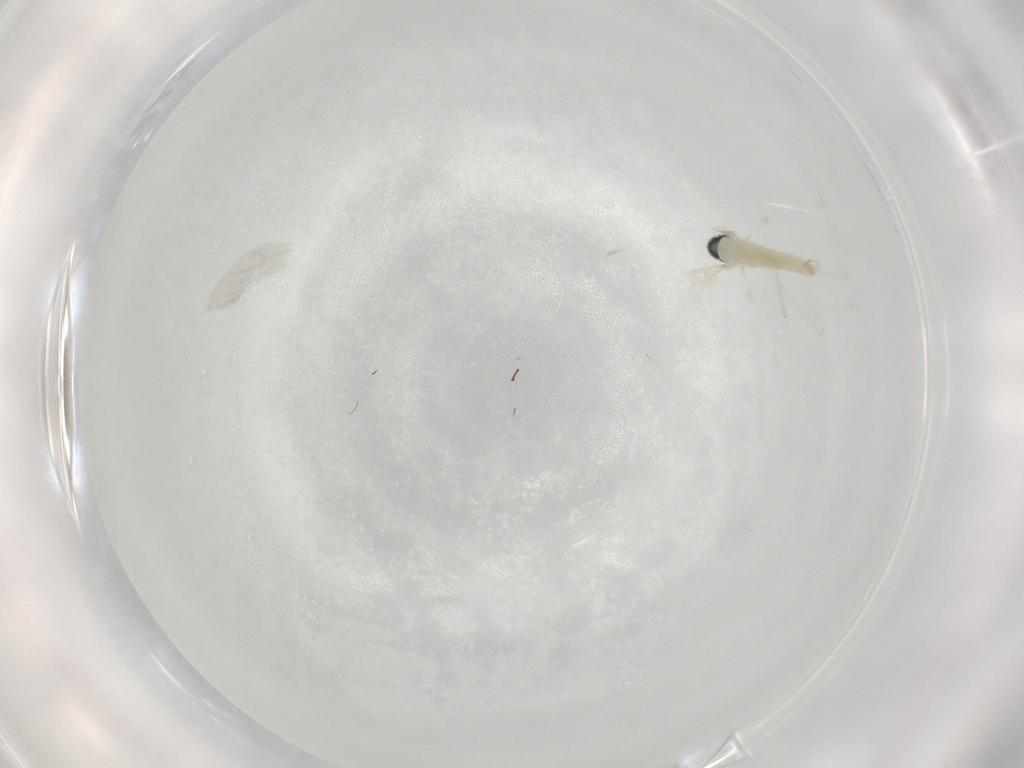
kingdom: Animalia
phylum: Arthropoda
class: Insecta
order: Diptera
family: Cecidomyiidae
